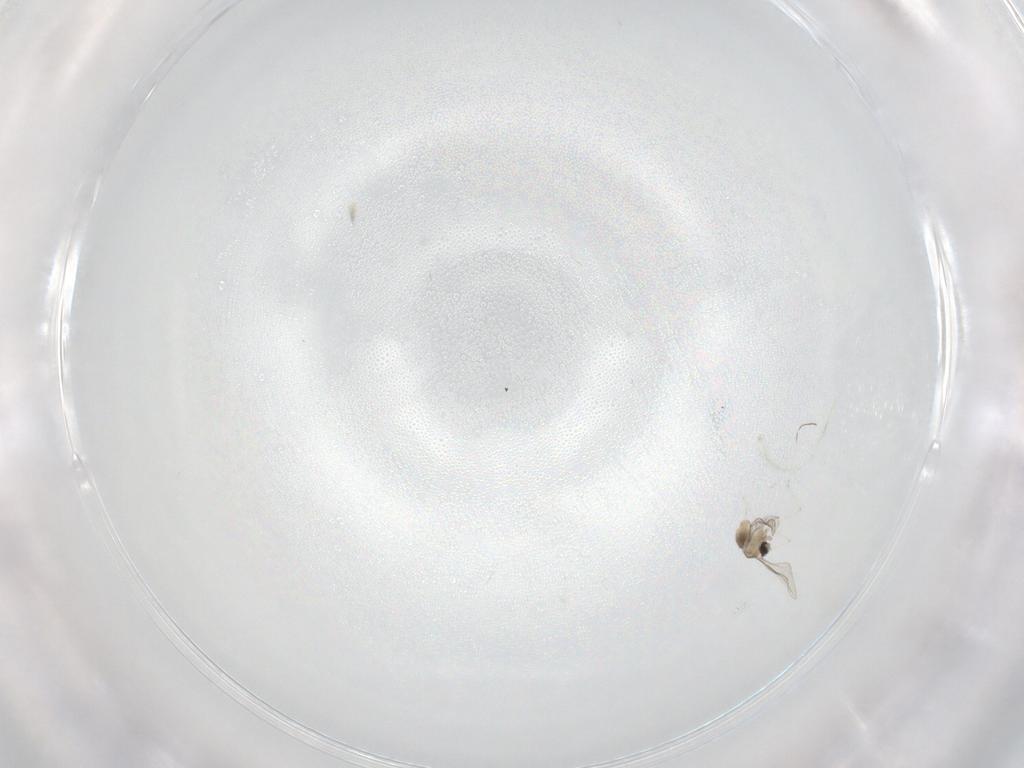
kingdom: Animalia
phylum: Arthropoda
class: Insecta
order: Diptera
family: Cecidomyiidae
